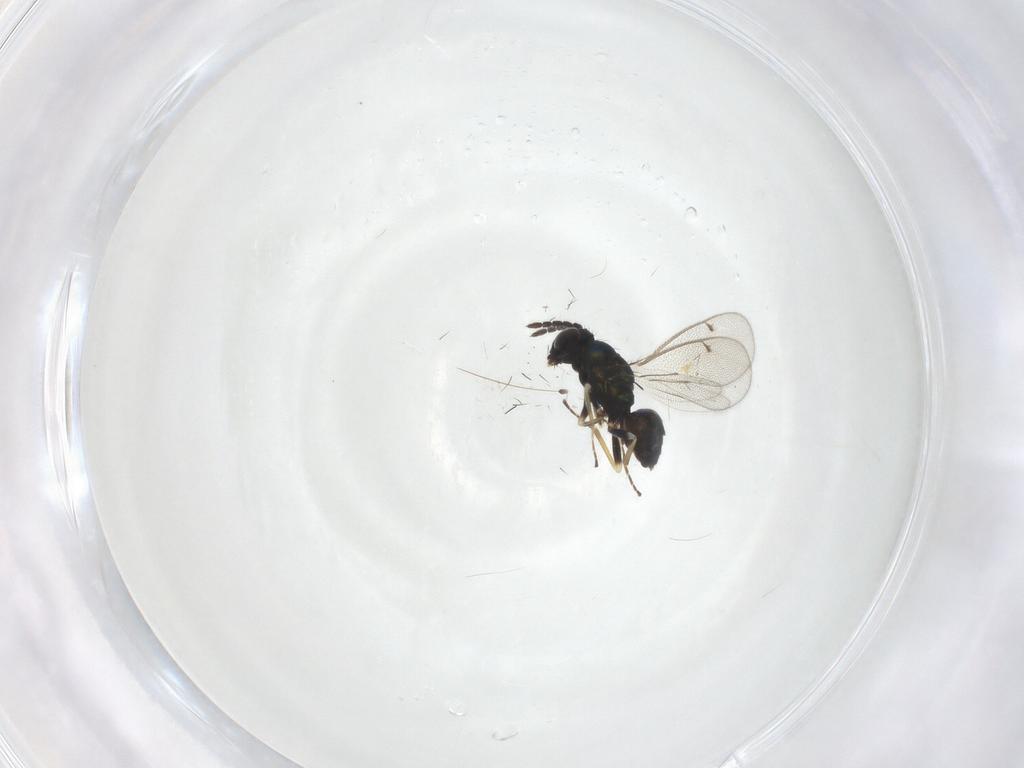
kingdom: Animalia
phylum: Arthropoda
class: Insecta
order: Hymenoptera
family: Eulophidae
